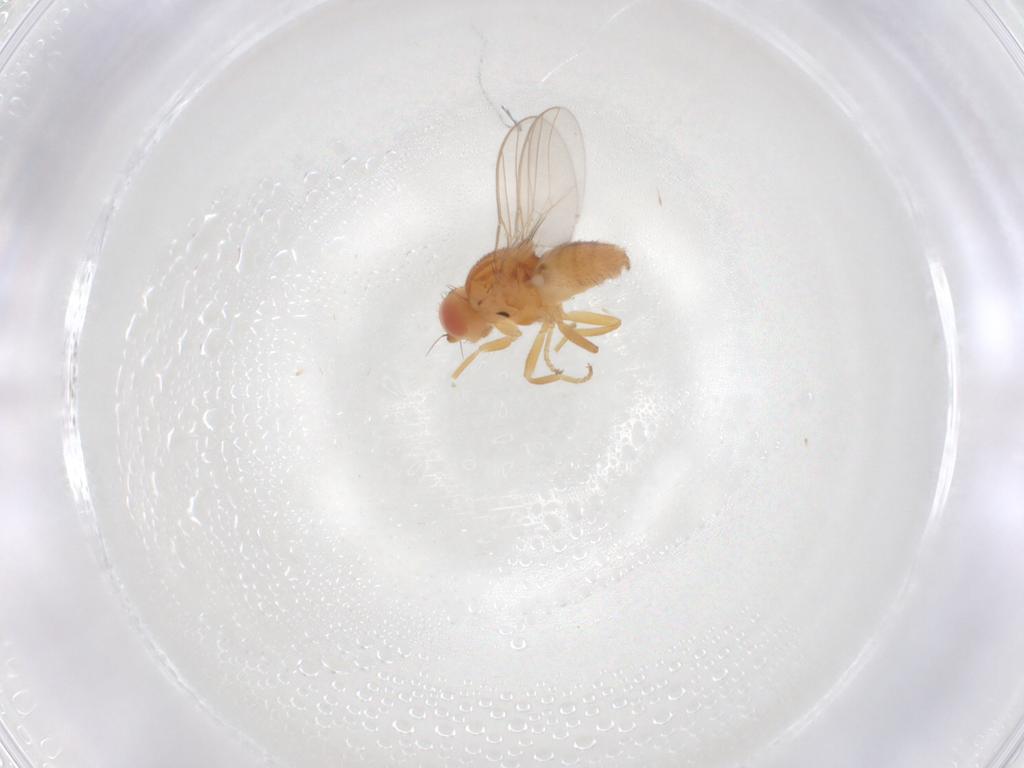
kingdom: Animalia
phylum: Arthropoda
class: Insecta
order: Diptera
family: Chloropidae
